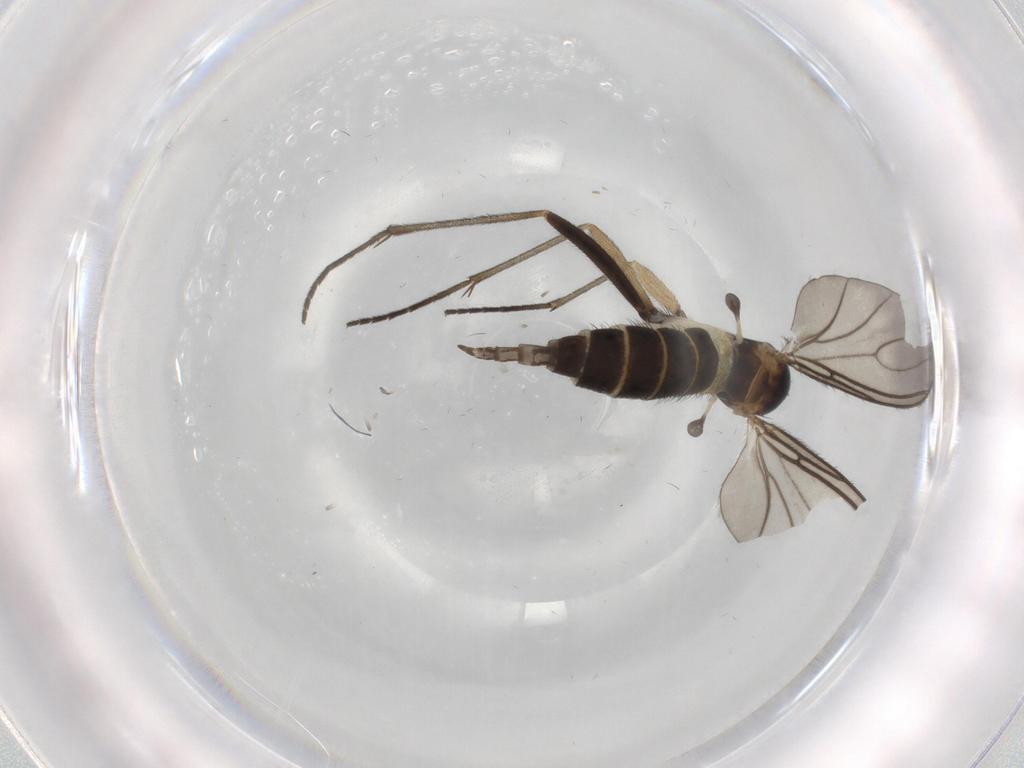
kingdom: Animalia
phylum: Arthropoda
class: Insecta
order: Diptera
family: Sciaridae
